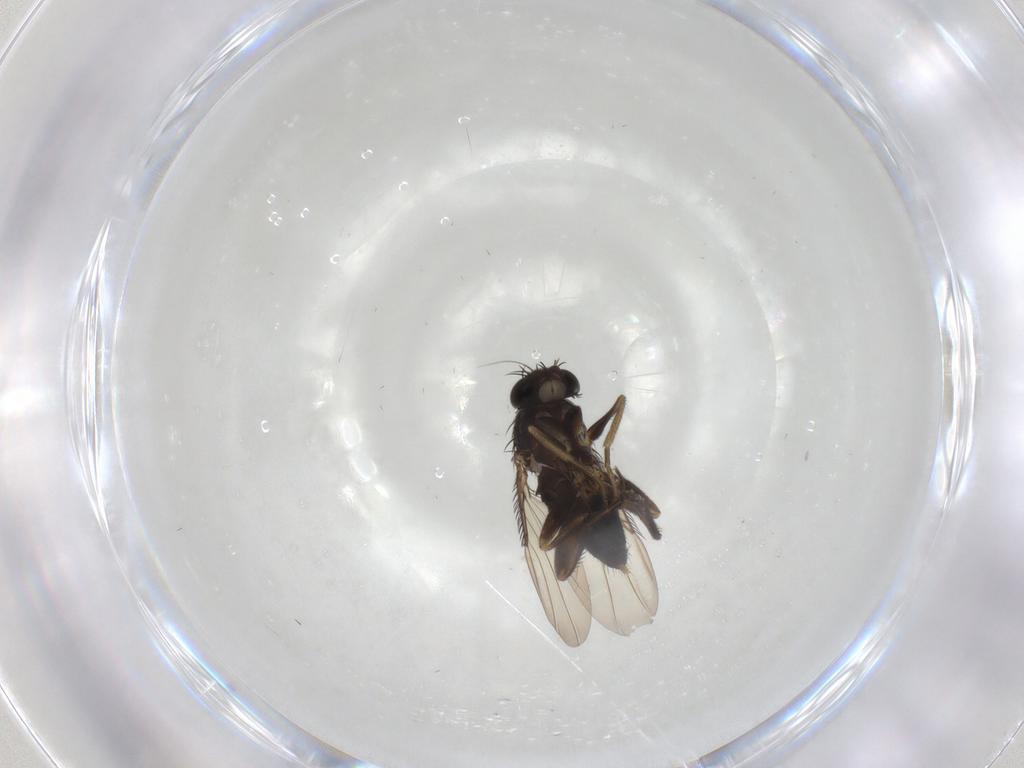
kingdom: Animalia
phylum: Arthropoda
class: Insecta
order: Diptera
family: Phoridae
